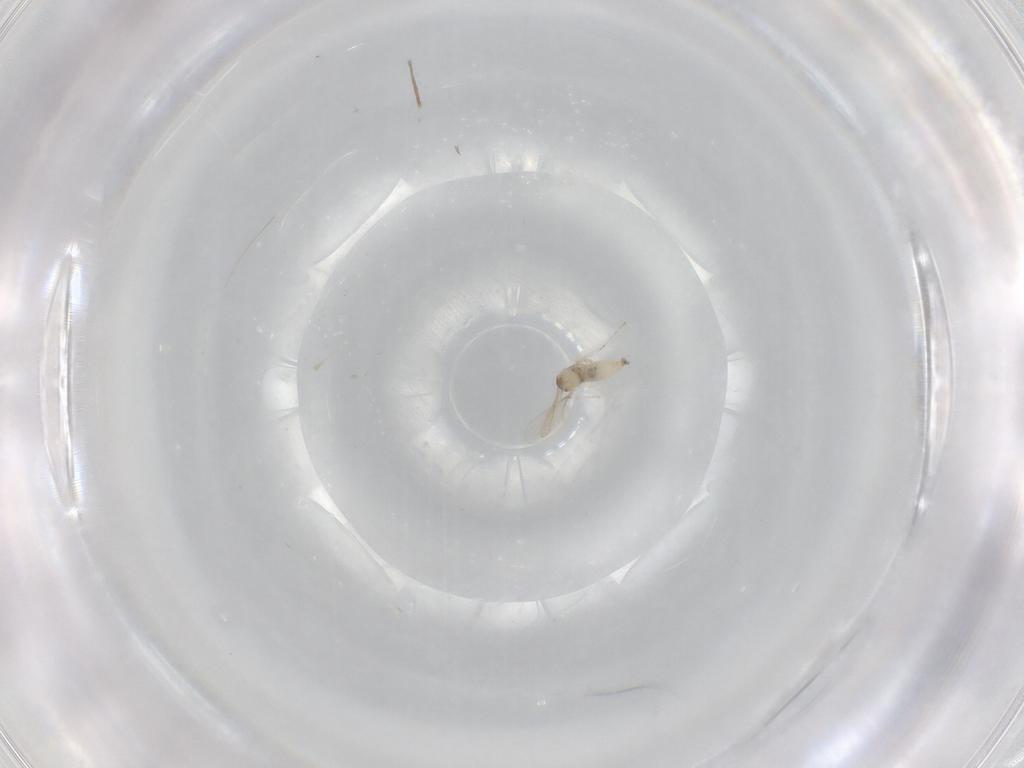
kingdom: Animalia
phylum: Arthropoda
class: Insecta
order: Diptera
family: Cecidomyiidae
